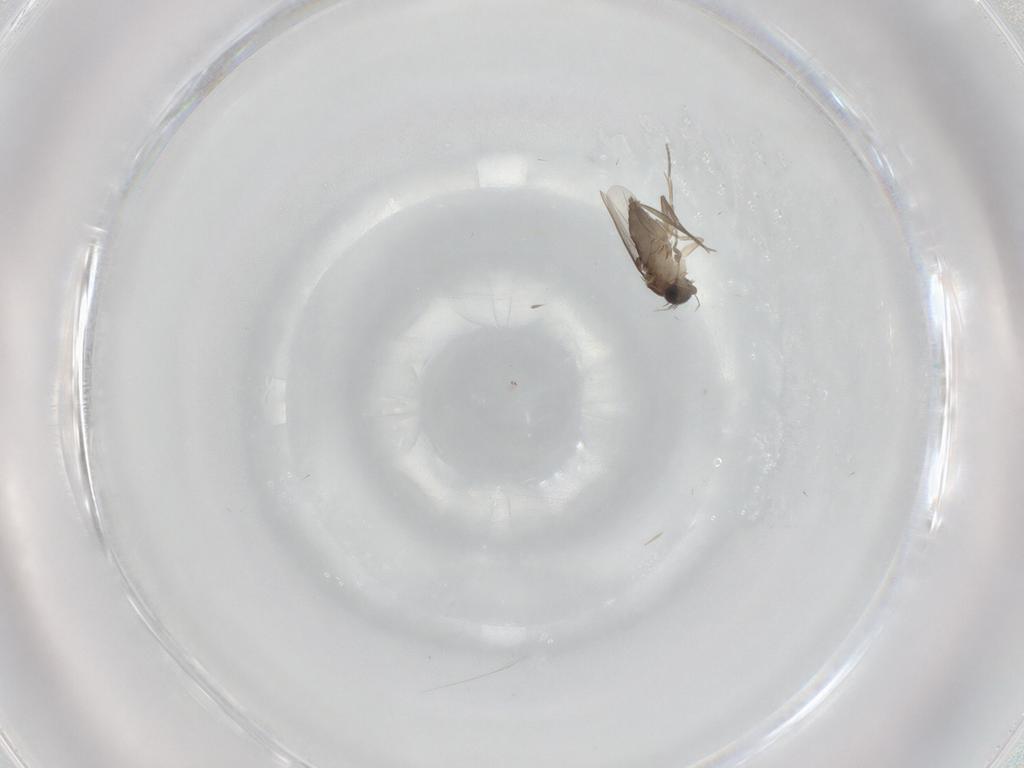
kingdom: Animalia
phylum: Arthropoda
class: Insecta
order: Diptera
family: Phoridae
